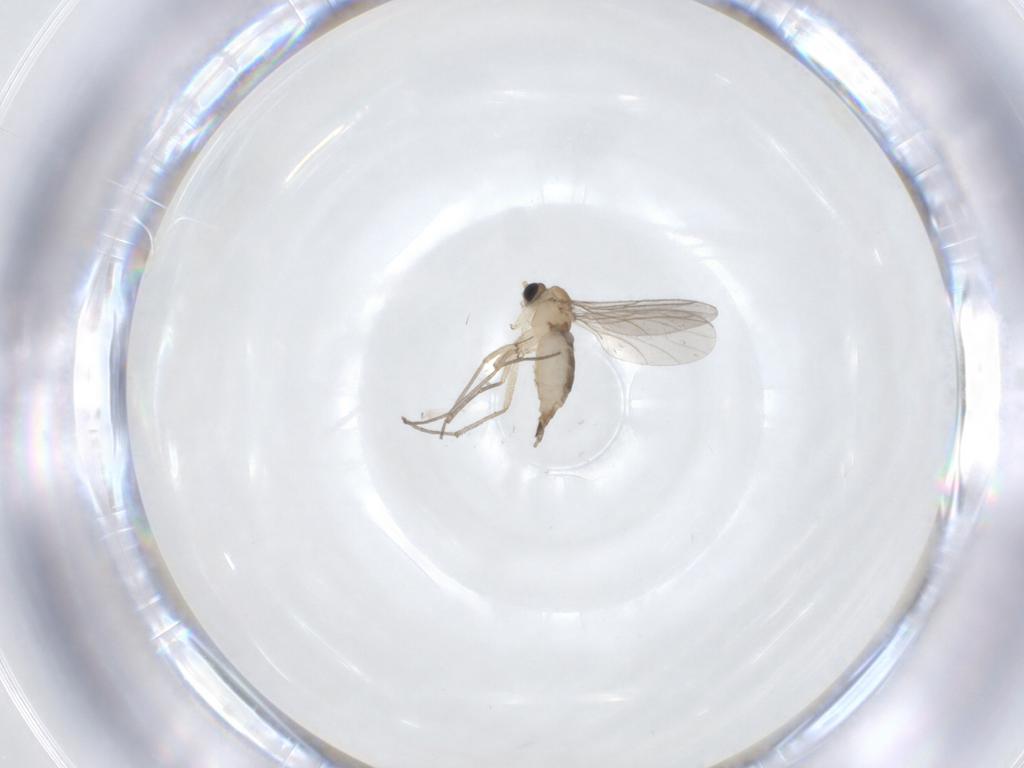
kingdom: Animalia
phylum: Arthropoda
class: Insecta
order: Diptera
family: Sciaridae
